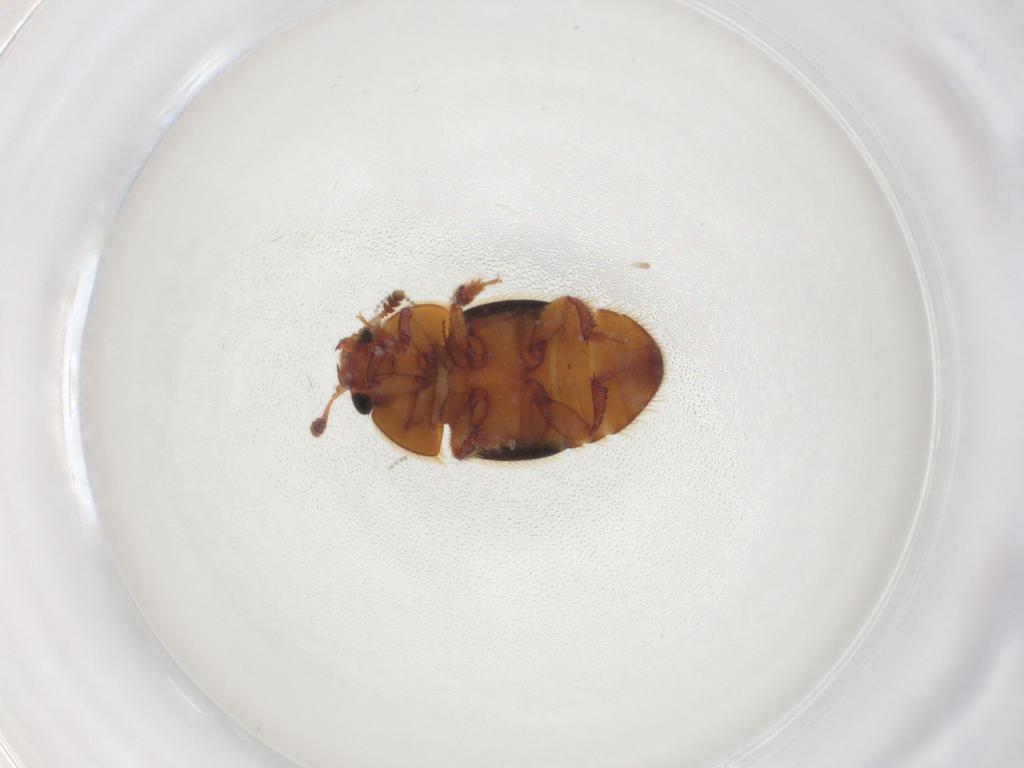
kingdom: Animalia
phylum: Arthropoda
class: Insecta
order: Coleoptera
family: Nitidulidae
